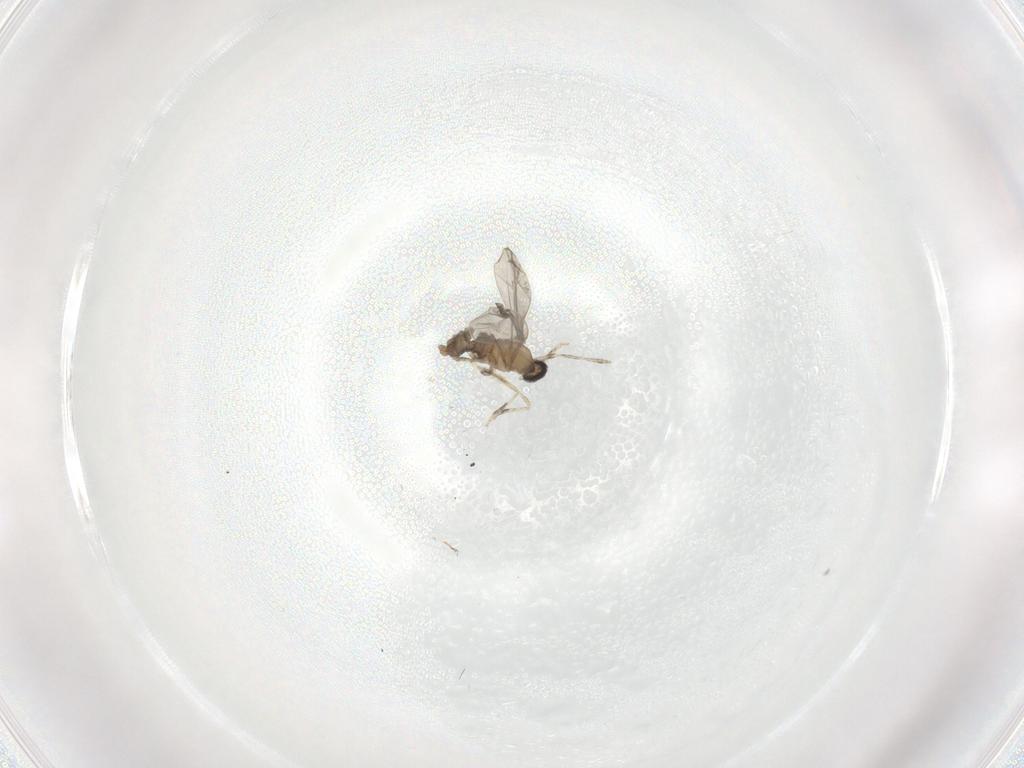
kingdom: Animalia
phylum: Arthropoda
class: Insecta
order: Diptera
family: Cecidomyiidae
